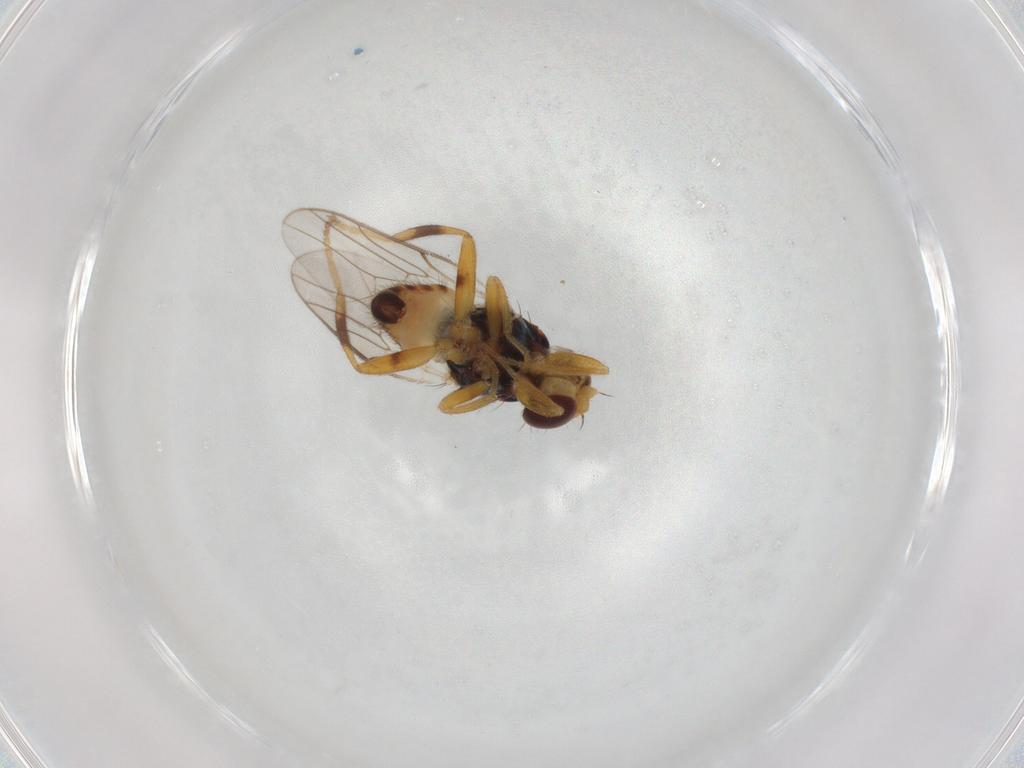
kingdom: Animalia
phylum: Arthropoda
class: Insecta
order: Diptera
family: Chloropidae
